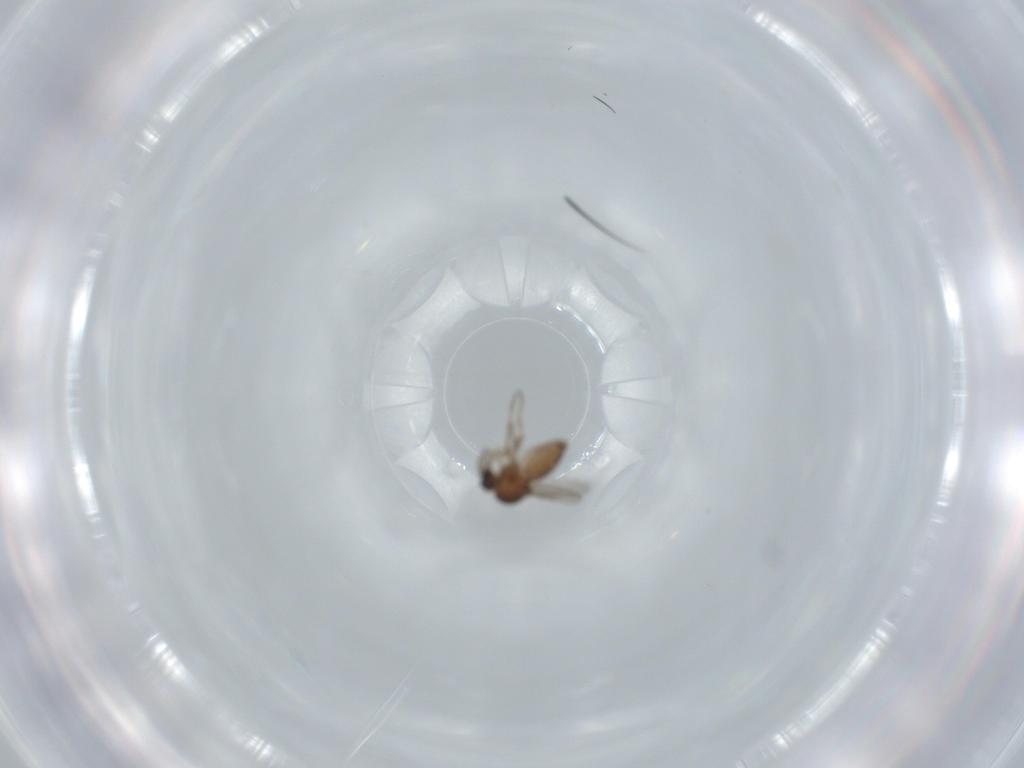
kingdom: Animalia
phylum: Arthropoda
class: Insecta
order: Diptera
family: Ceratopogonidae
